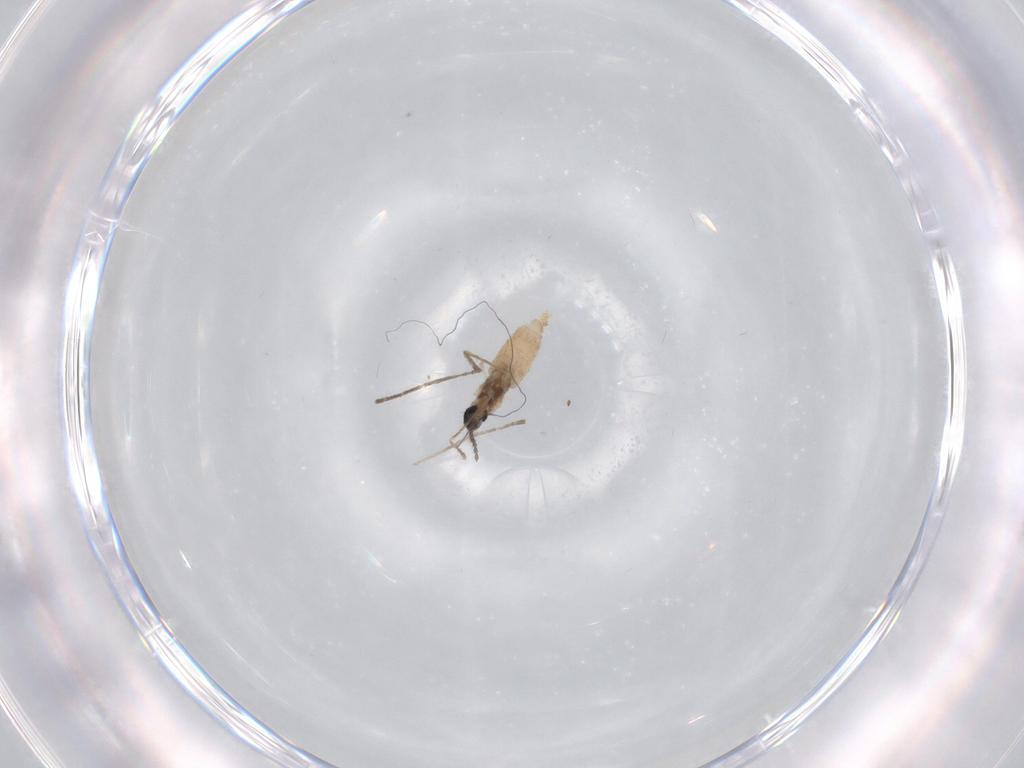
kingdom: Animalia
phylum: Arthropoda
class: Insecta
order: Diptera
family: Cecidomyiidae
